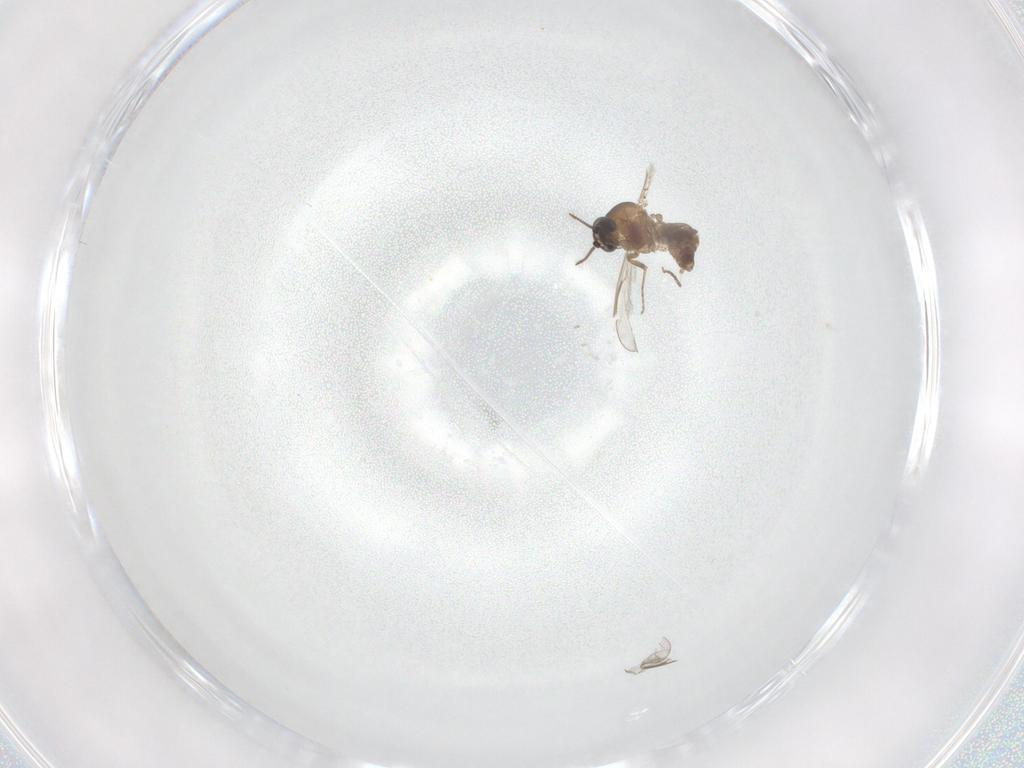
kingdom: Animalia
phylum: Arthropoda
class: Insecta
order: Diptera
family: Ceratopogonidae
